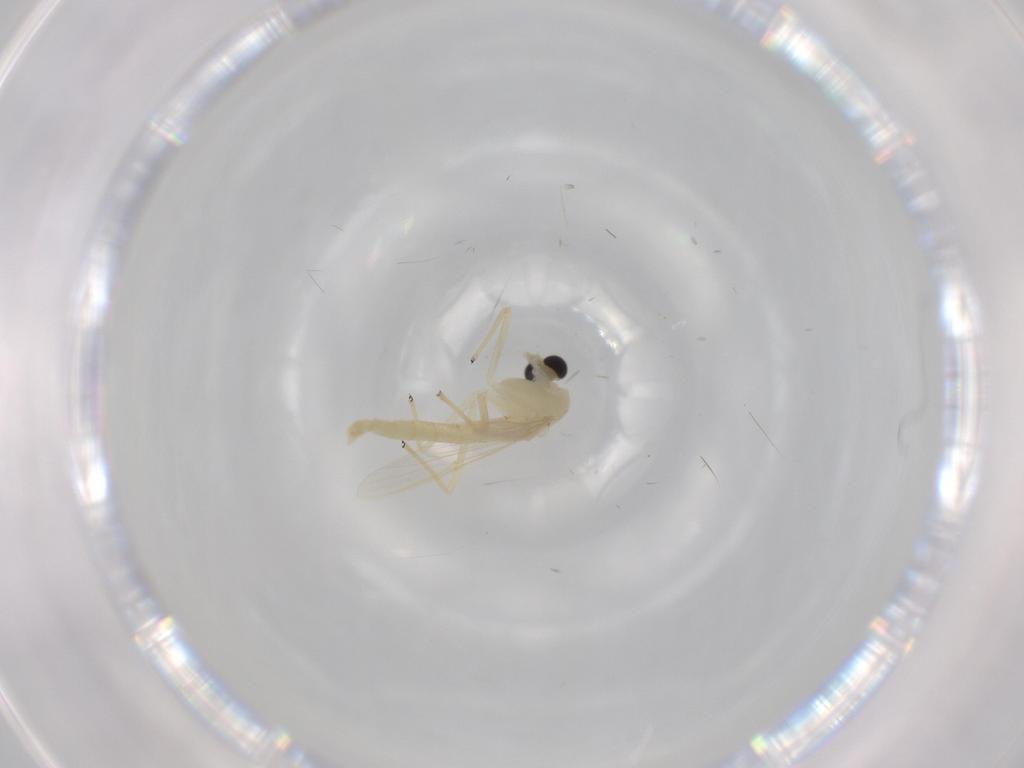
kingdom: Animalia
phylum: Arthropoda
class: Insecta
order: Diptera
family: Chironomidae
